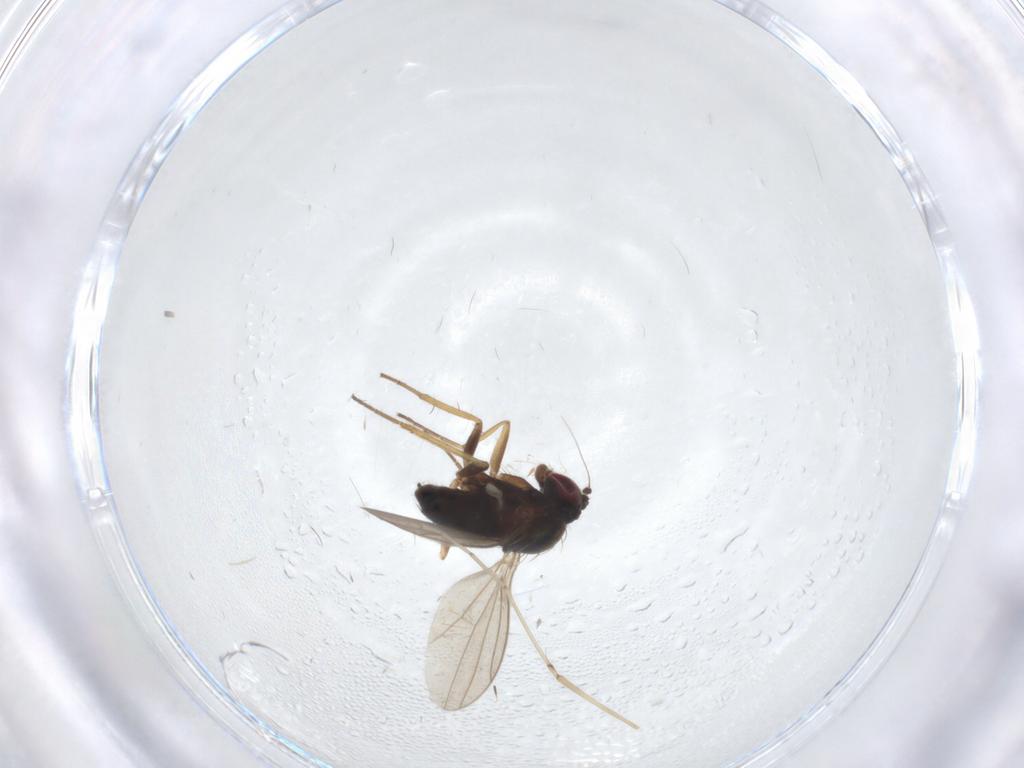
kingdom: Animalia
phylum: Arthropoda
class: Insecta
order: Diptera
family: Cecidomyiidae
